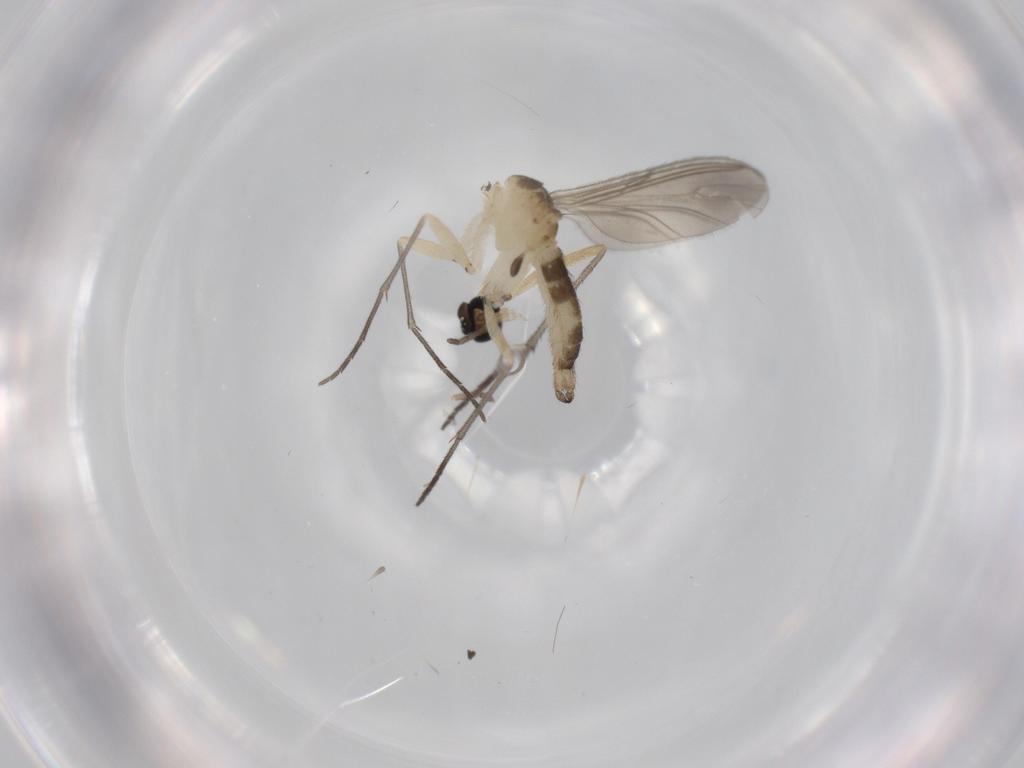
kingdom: Animalia
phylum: Arthropoda
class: Insecta
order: Diptera
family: Sciaridae
